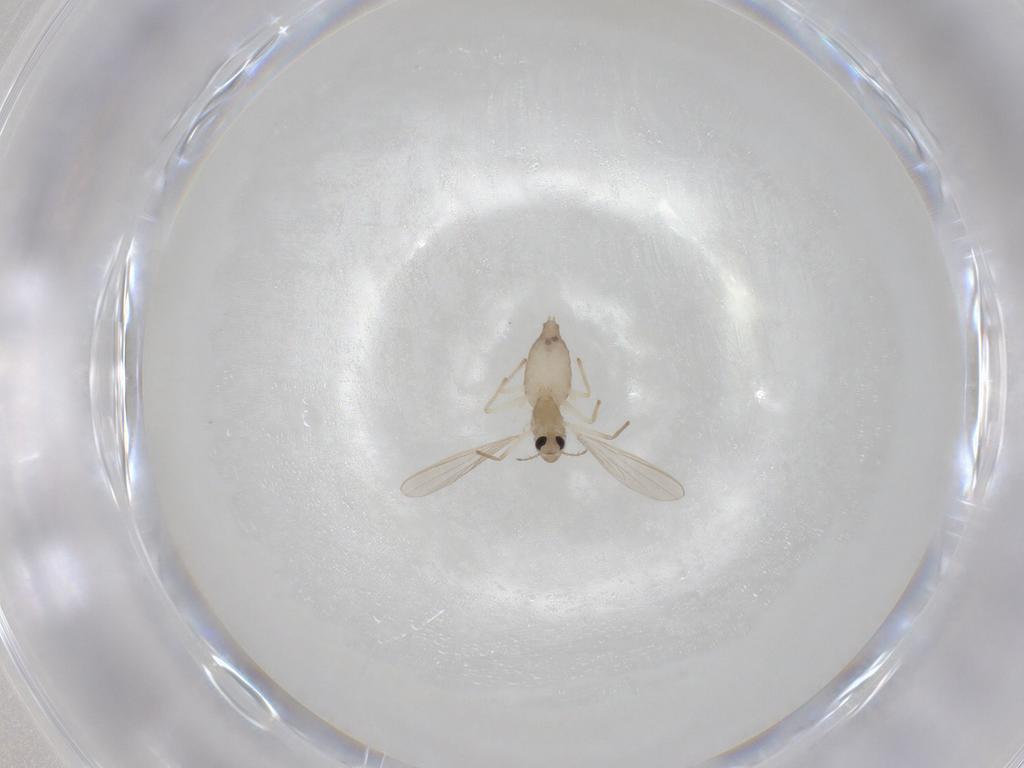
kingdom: Animalia
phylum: Arthropoda
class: Insecta
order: Diptera
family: Chironomidae
